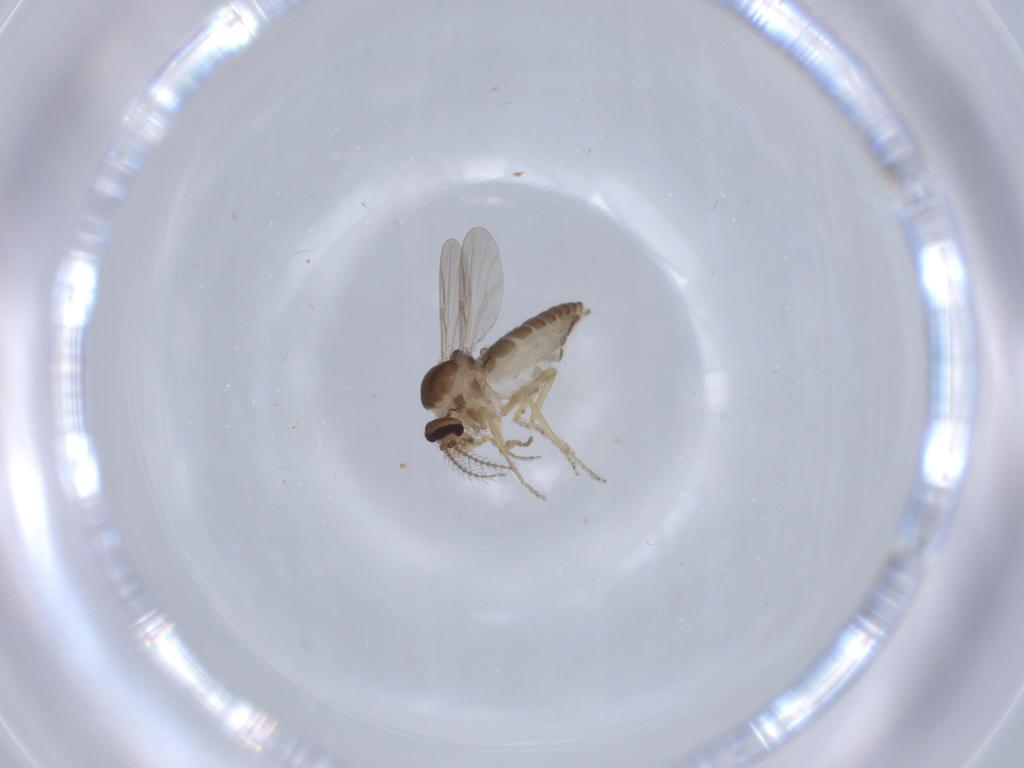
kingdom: Animalia
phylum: Arthropoda
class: Insecta
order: Diptera
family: Ceratopogonidae
